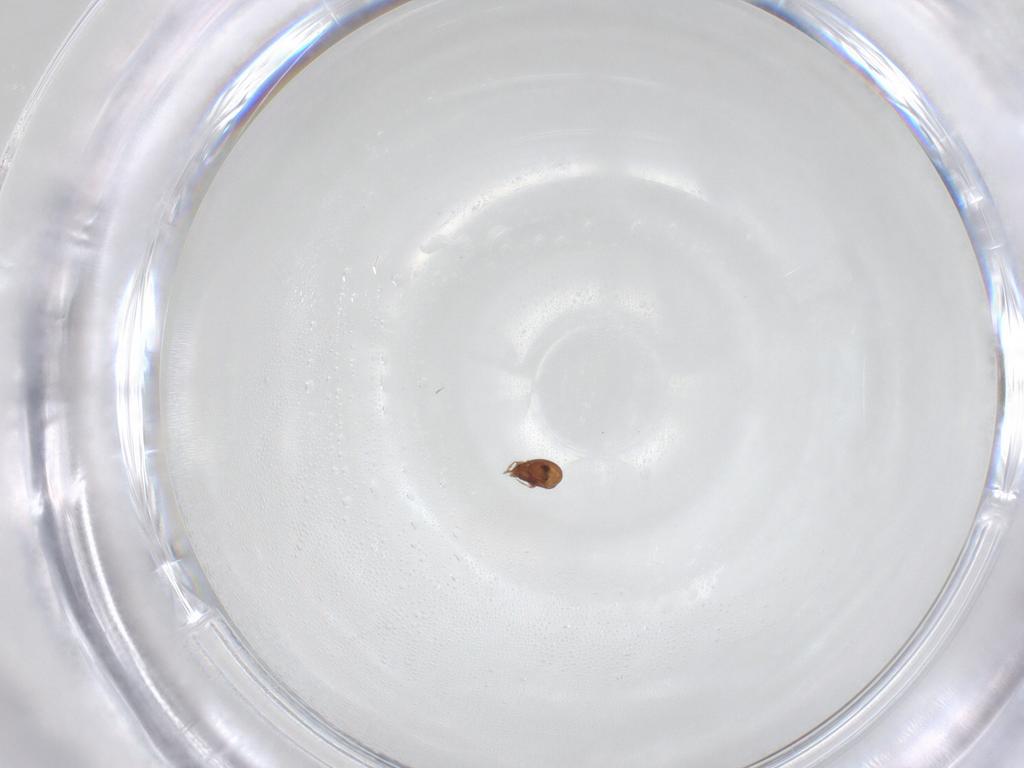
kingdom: Animalia
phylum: Arthropoda
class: Arachnida
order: Sarcoptiformes
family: Scheloribatidae
